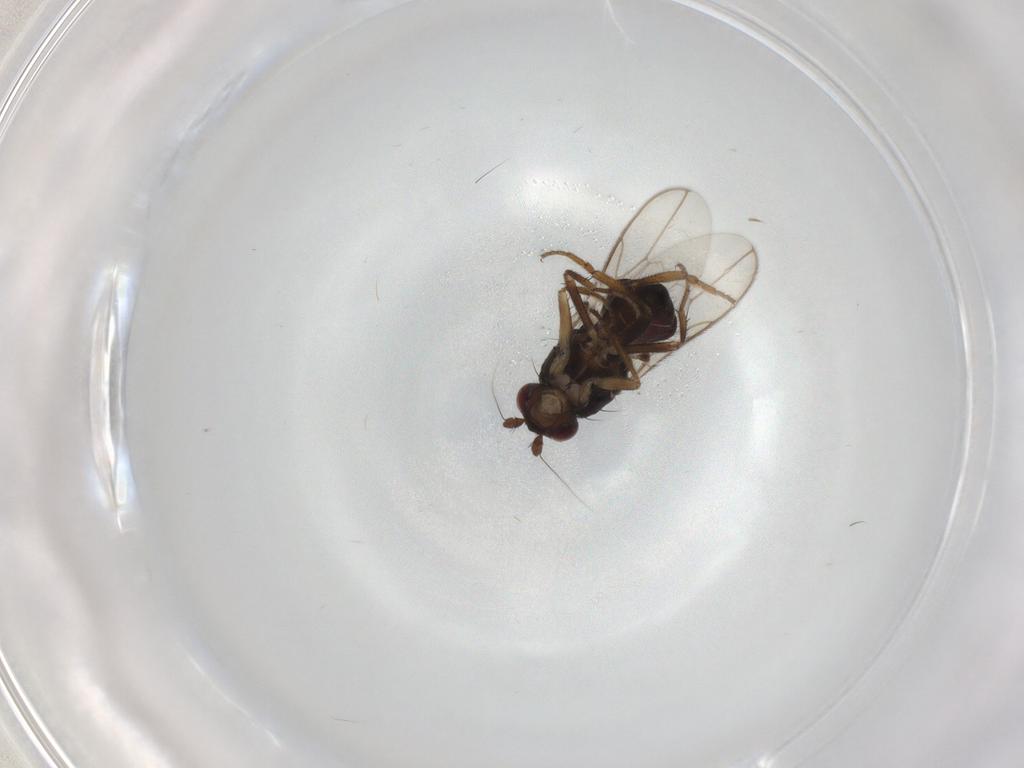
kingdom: Animalia
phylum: Arthropoda
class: Insecta
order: Diptera
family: Sphaeroceridae
